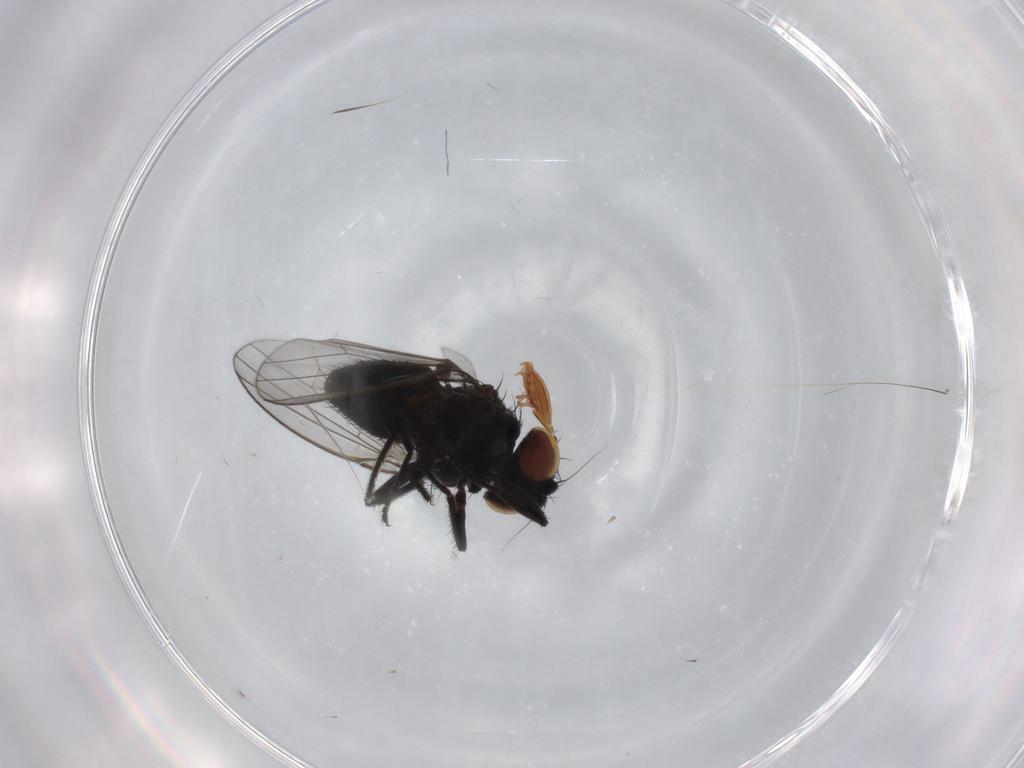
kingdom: Animalia
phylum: Arthropoda
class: Insecta
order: Diptera
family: Milichiidae
